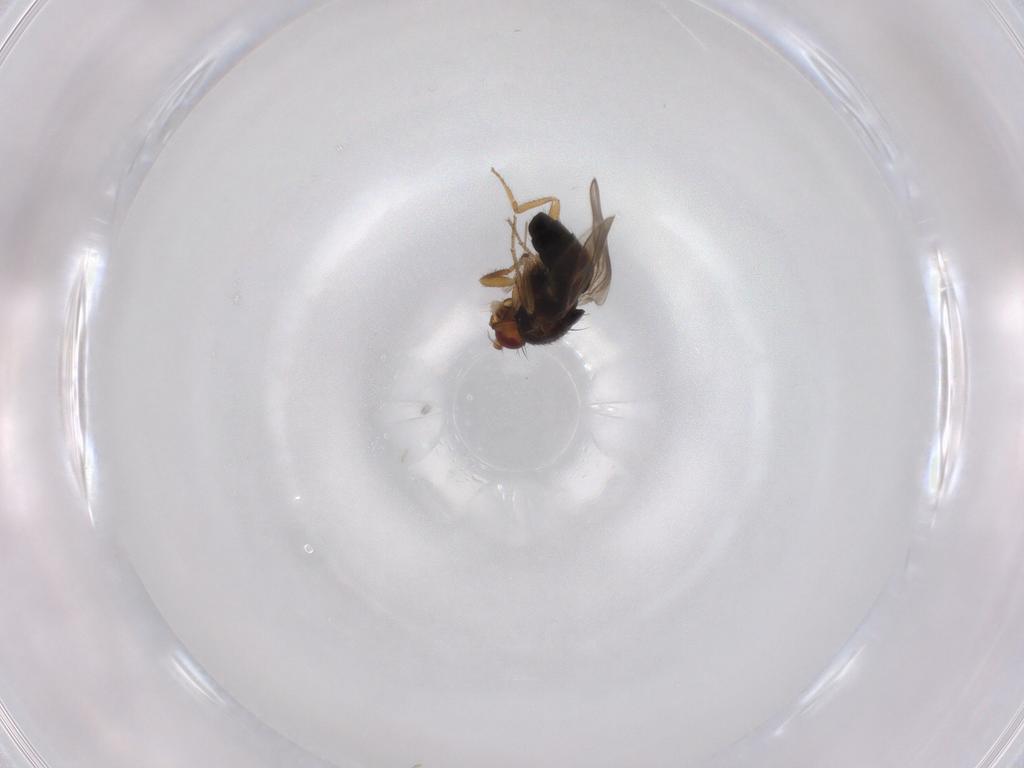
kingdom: Animalia
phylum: Arthropoda
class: Insecta
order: Diptera
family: Sphaeroceridae
